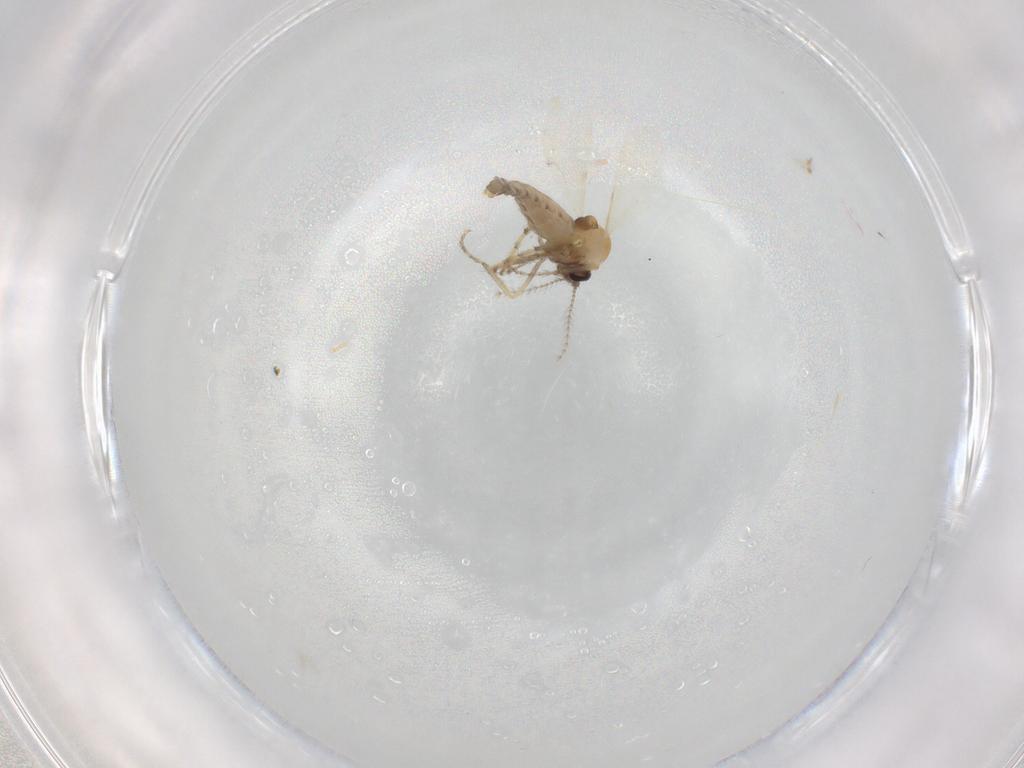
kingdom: Animalia
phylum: Arthropoda
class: Insecta
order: Diptera
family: Ceratopogonidae
